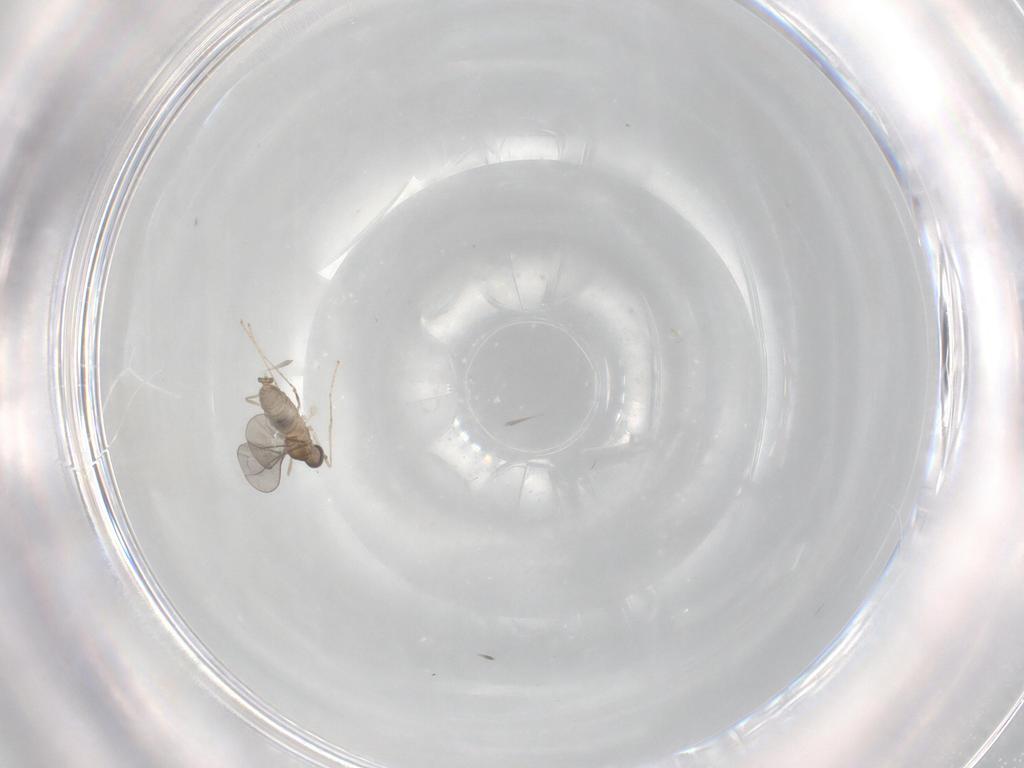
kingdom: Animalia
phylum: Arthropoda
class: Insecta
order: Diptera
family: Cecidomyiidae
